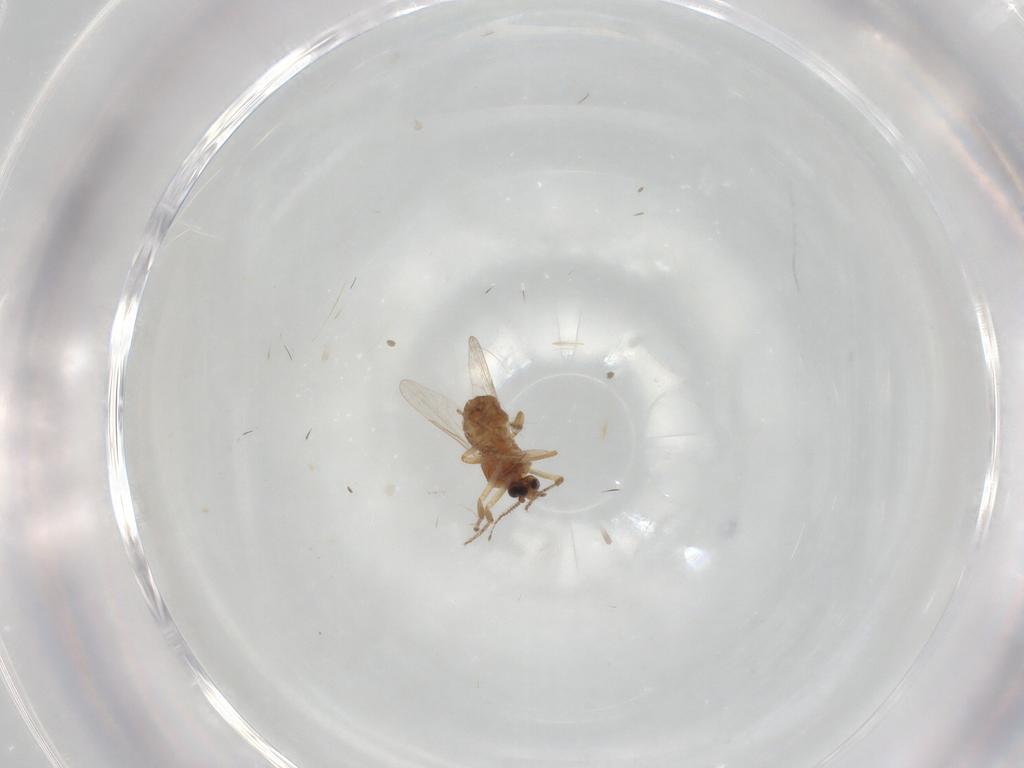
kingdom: Animalia
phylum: Arthropoda
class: Insecta
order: Diptera
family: Ceratopogonidae
